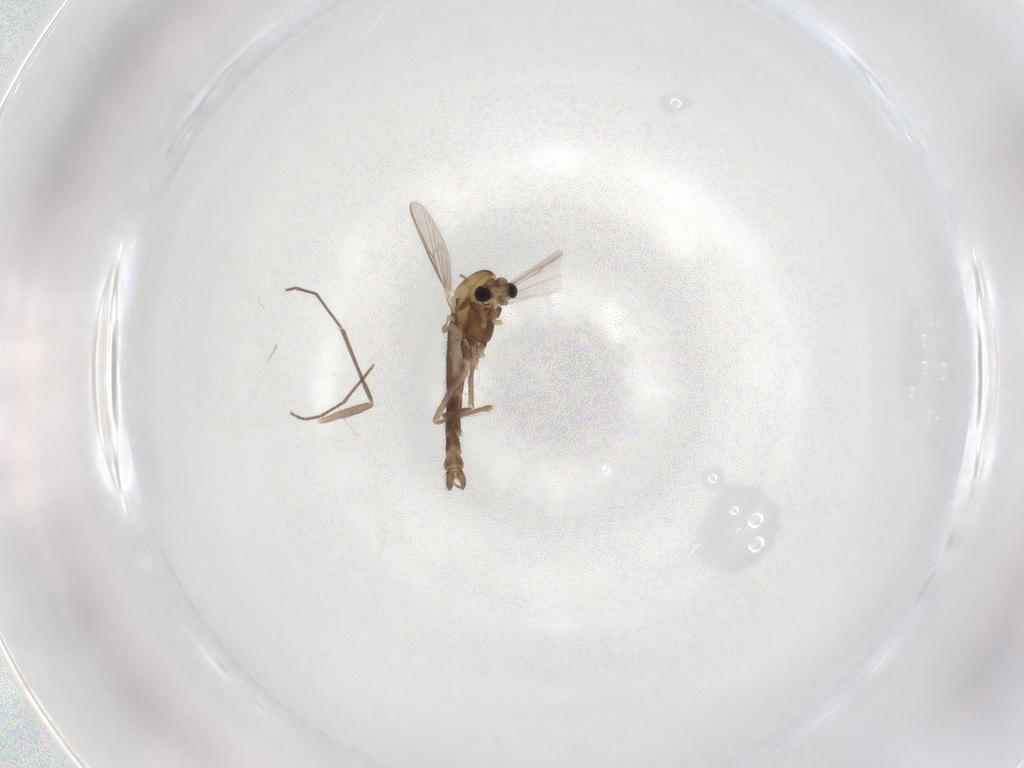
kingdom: Animalia
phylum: Arthropoda
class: Insecta
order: Diptera
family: Chironomidae
